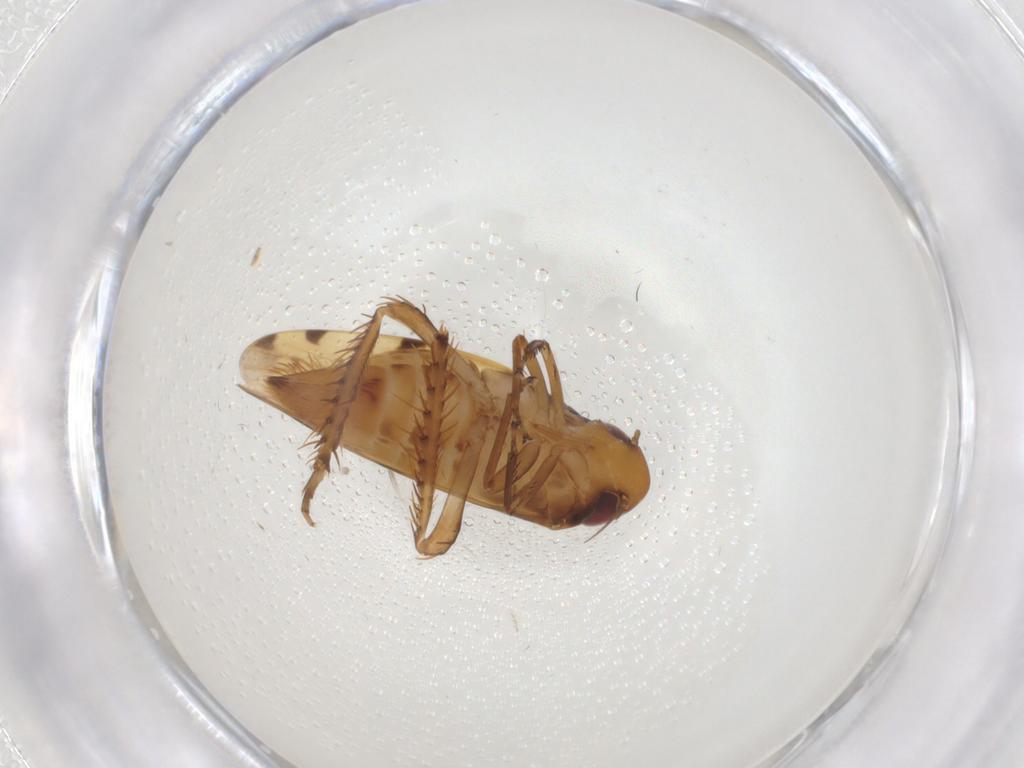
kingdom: Animalia
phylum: Arthropoda
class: Insecta
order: Hemiptera
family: Cicadellidae
